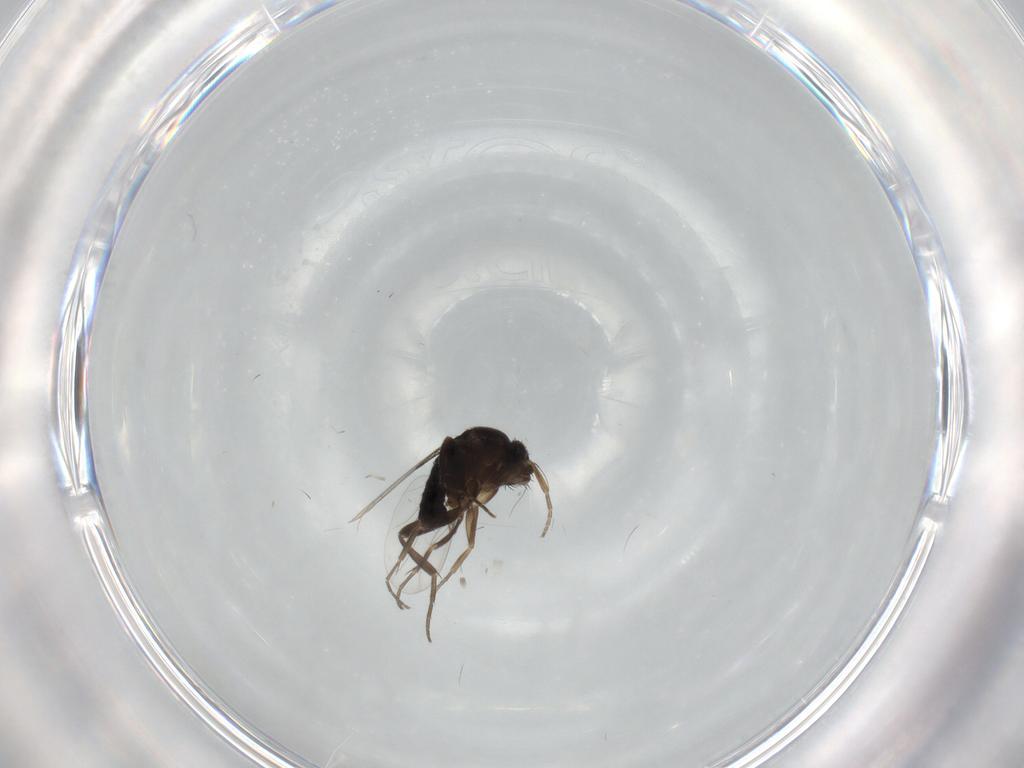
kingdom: Animalia
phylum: Arthropoda
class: Insecta
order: Diptera
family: Phoridae
